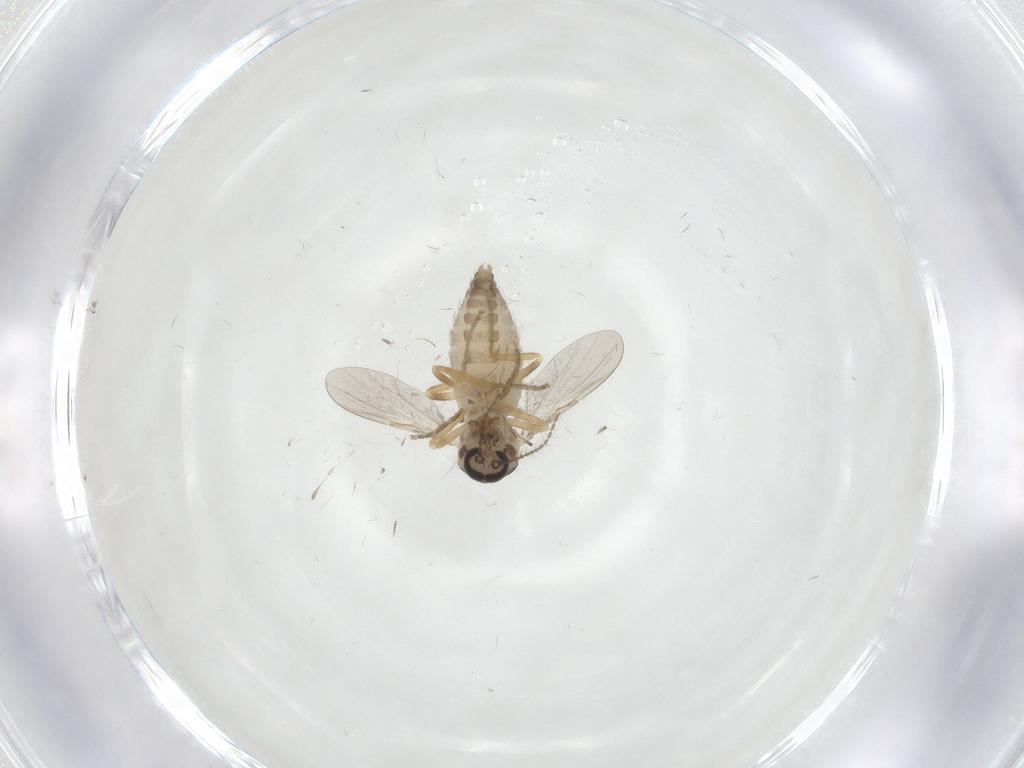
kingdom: Animalia
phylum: Arthropoda
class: Insecta
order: Diptera
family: Ceratopogonidae
